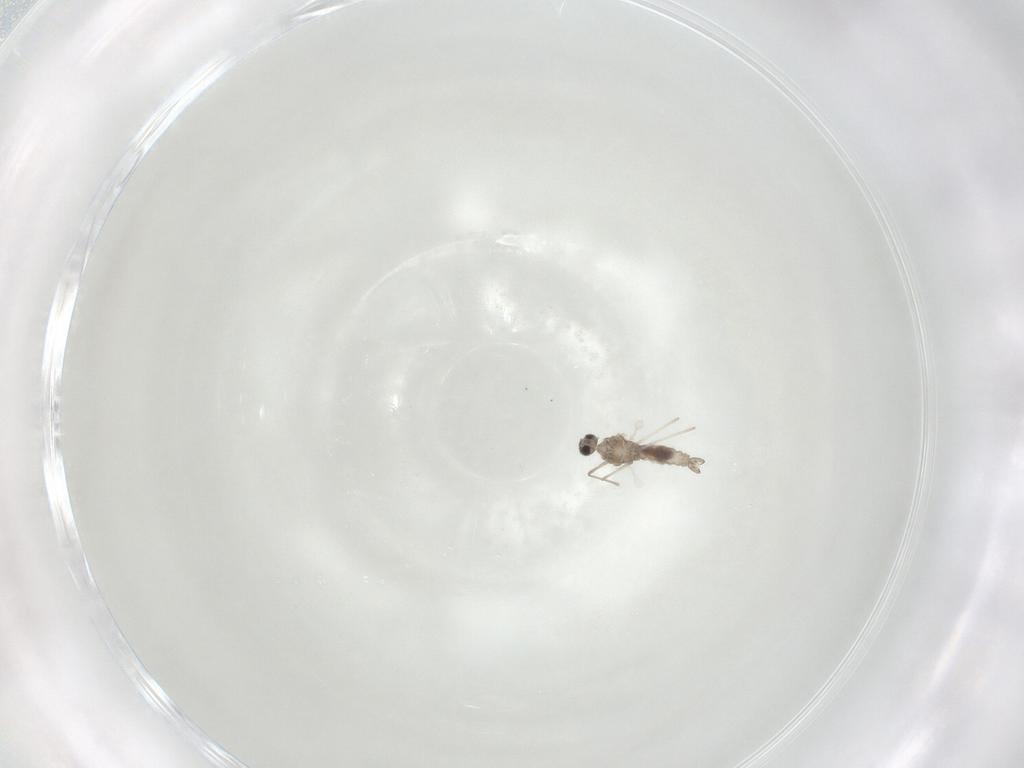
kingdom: Animalia
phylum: Arthropoda
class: Insecta
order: Diptera
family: Cecidomyiidae
